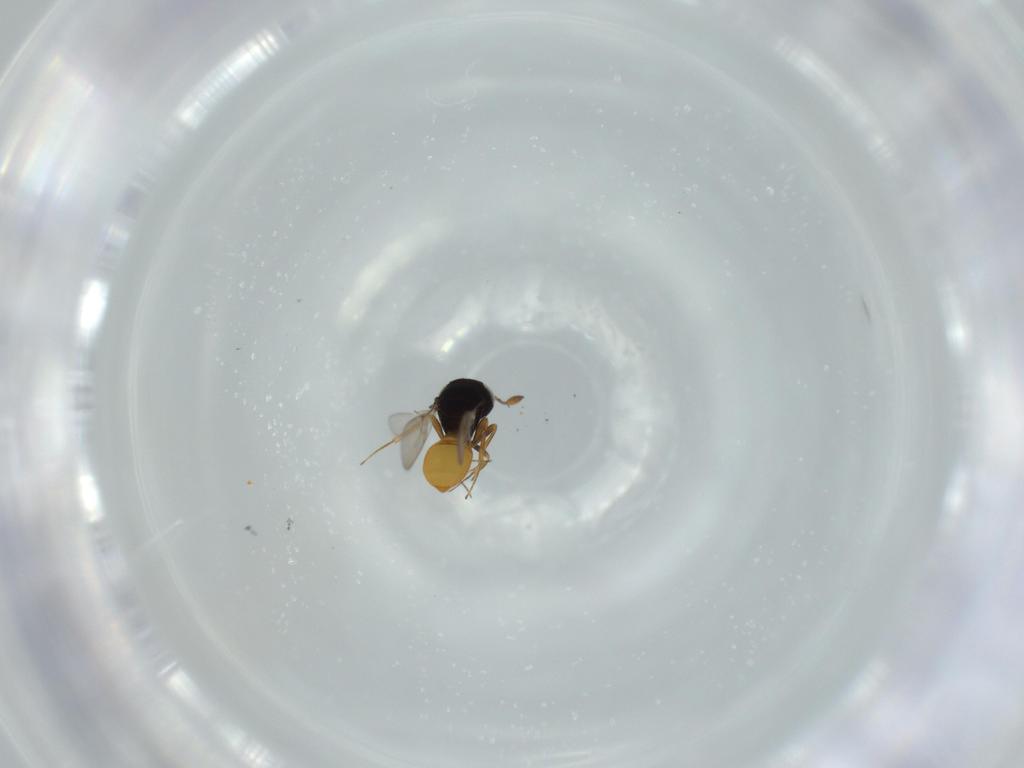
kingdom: Animalia
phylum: Arthropoda
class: Insecta
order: Hymenoptera
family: Scelionidae
